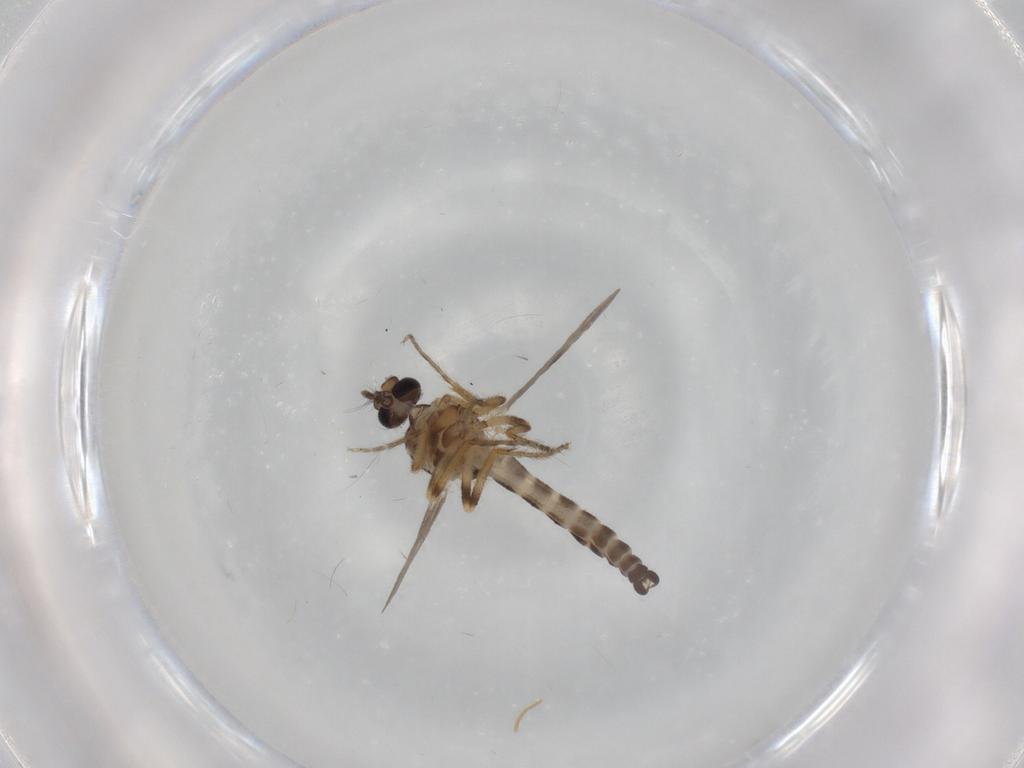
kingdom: Animalia
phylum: Arthropoda
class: Insecta
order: Diptera
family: Ceratopogonidae
